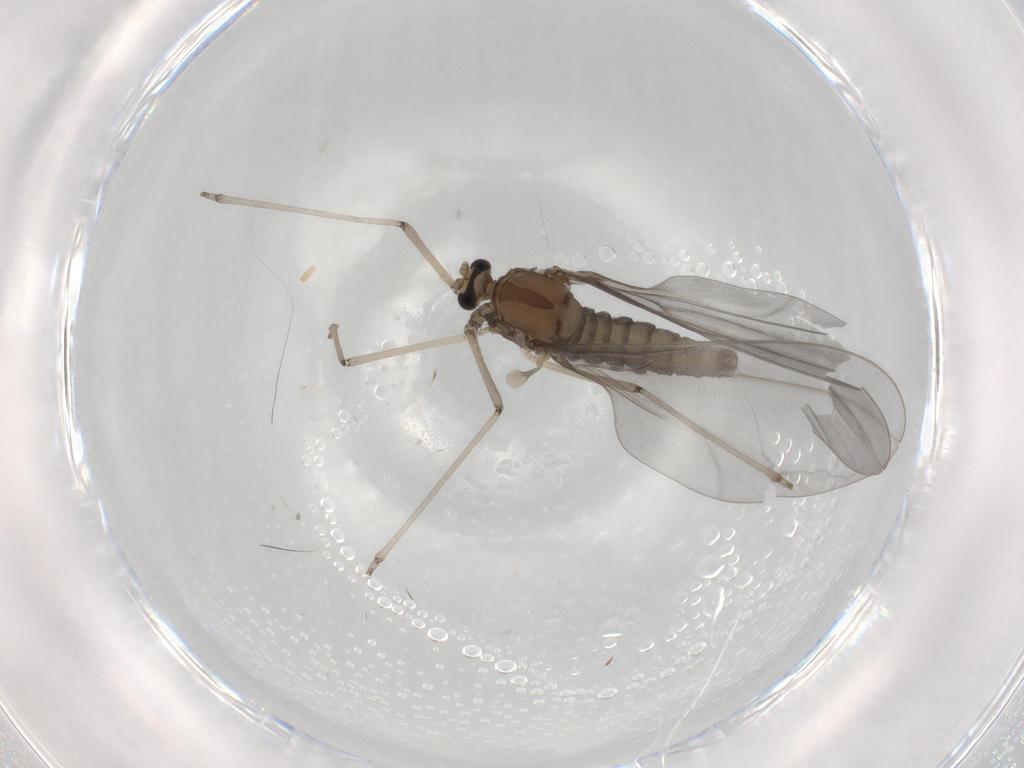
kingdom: Animalia
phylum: Arthropoda
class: Insecta
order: Diptera
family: Sciaridae
